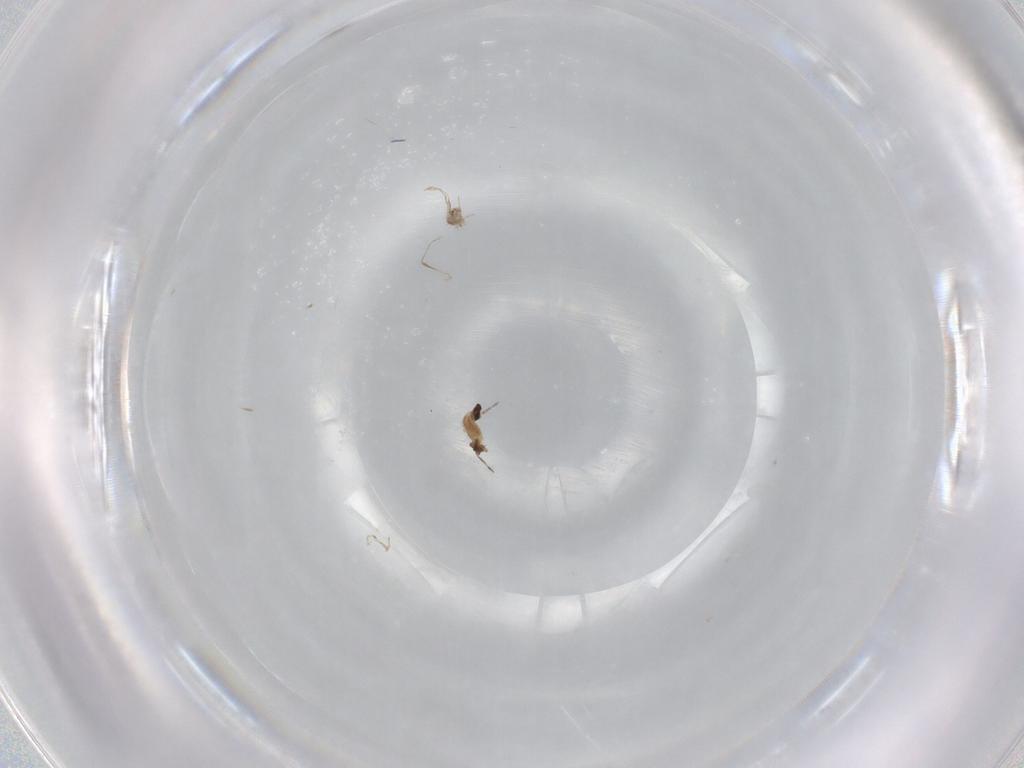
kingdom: Animalia
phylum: Arthropoda
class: Insecta
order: Diptera
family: Cecidomyiidae
